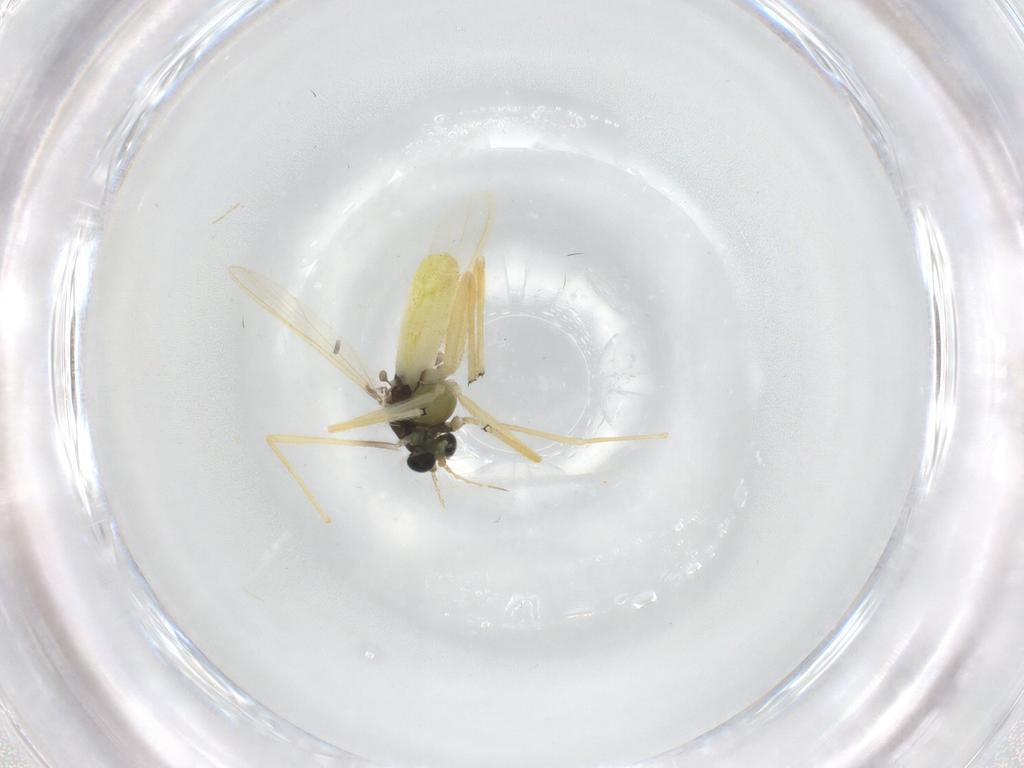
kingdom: Animalia
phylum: Arthropoda
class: Insecta
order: Diptera
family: Chironomidae
